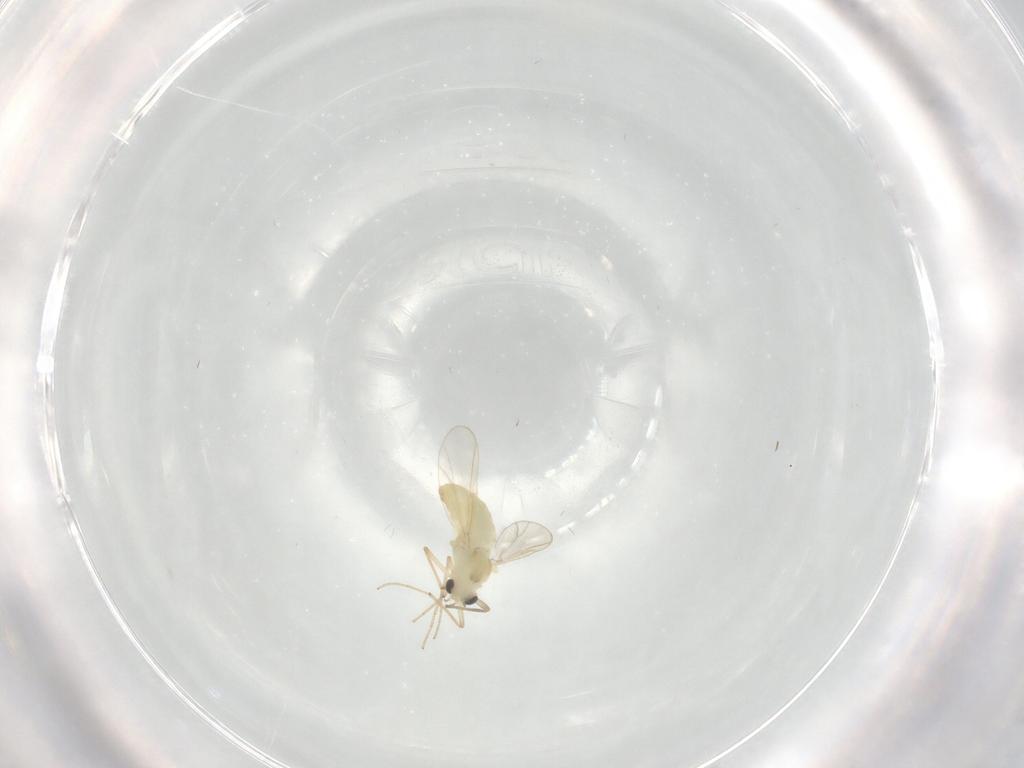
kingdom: Animalia
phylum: Arthropoda
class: Insecta
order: Diptera
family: Chironomidae
